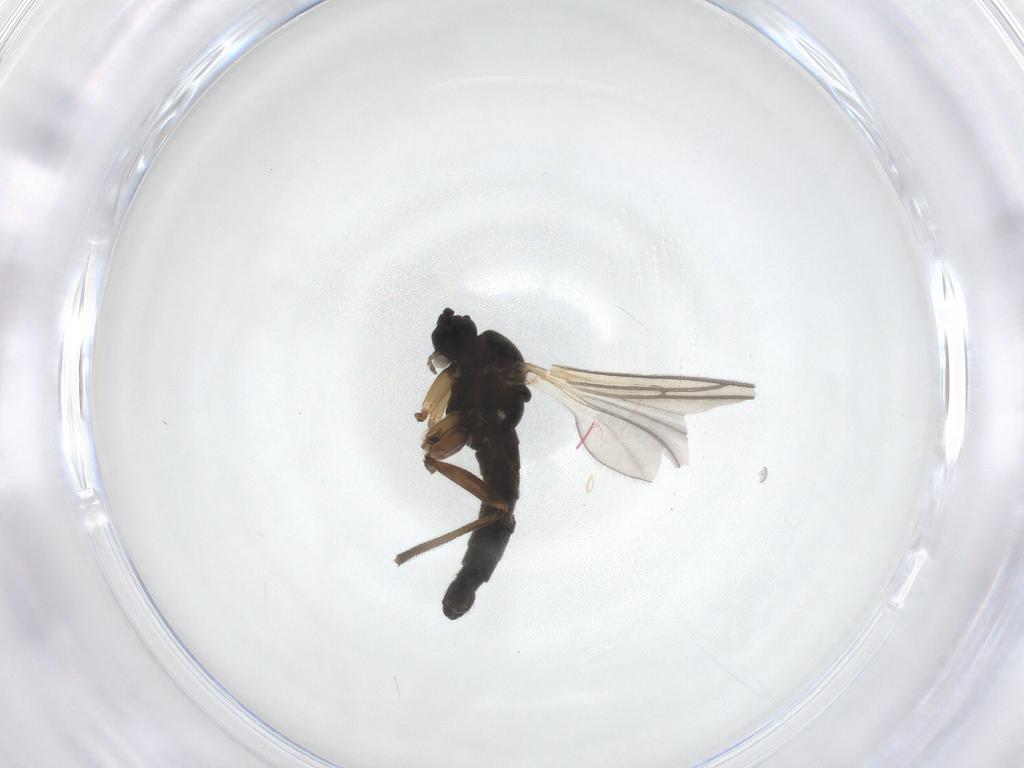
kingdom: Animalia
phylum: Arthropoda
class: Insecta
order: Diptera
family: Sciaridae
